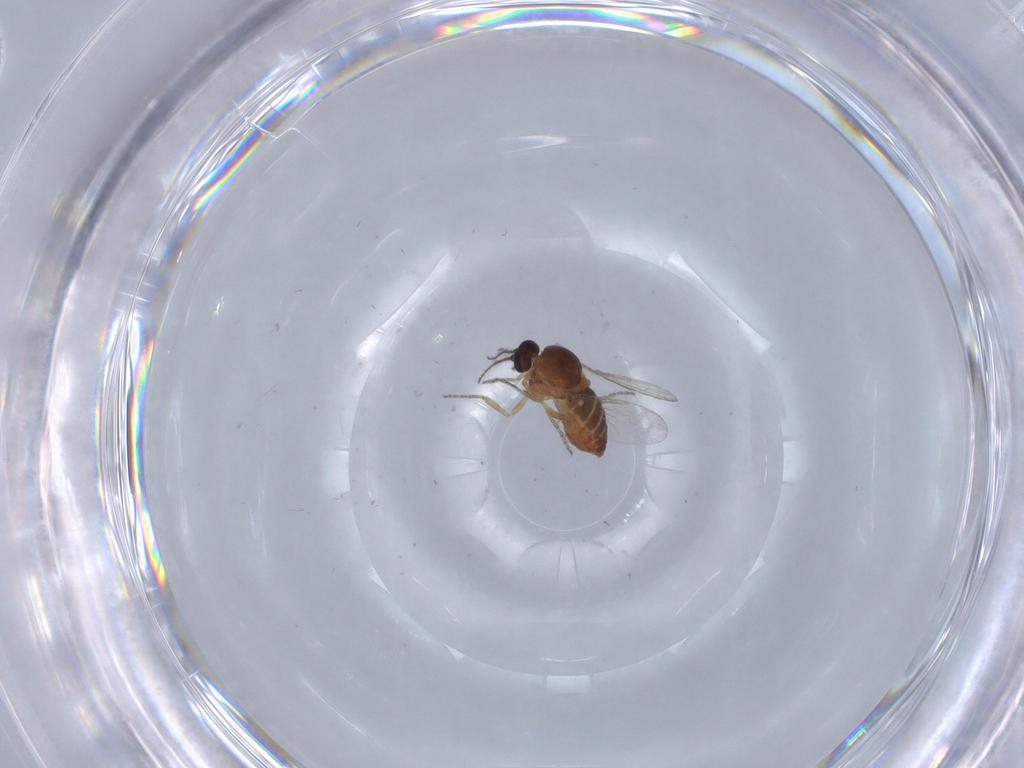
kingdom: Animalia
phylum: Arthropoda
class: Insecta
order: Diptera
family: Ceratopogonidae
